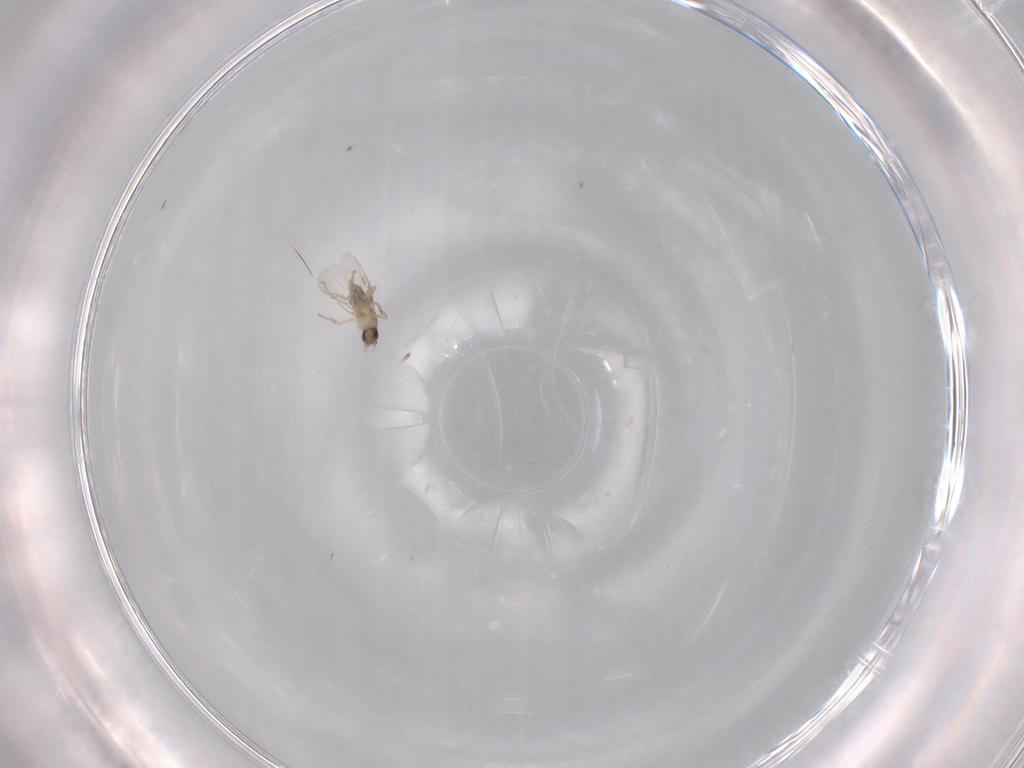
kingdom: Animalia
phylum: Arthropoda
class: Insecta
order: Diptera
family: Phoridae
